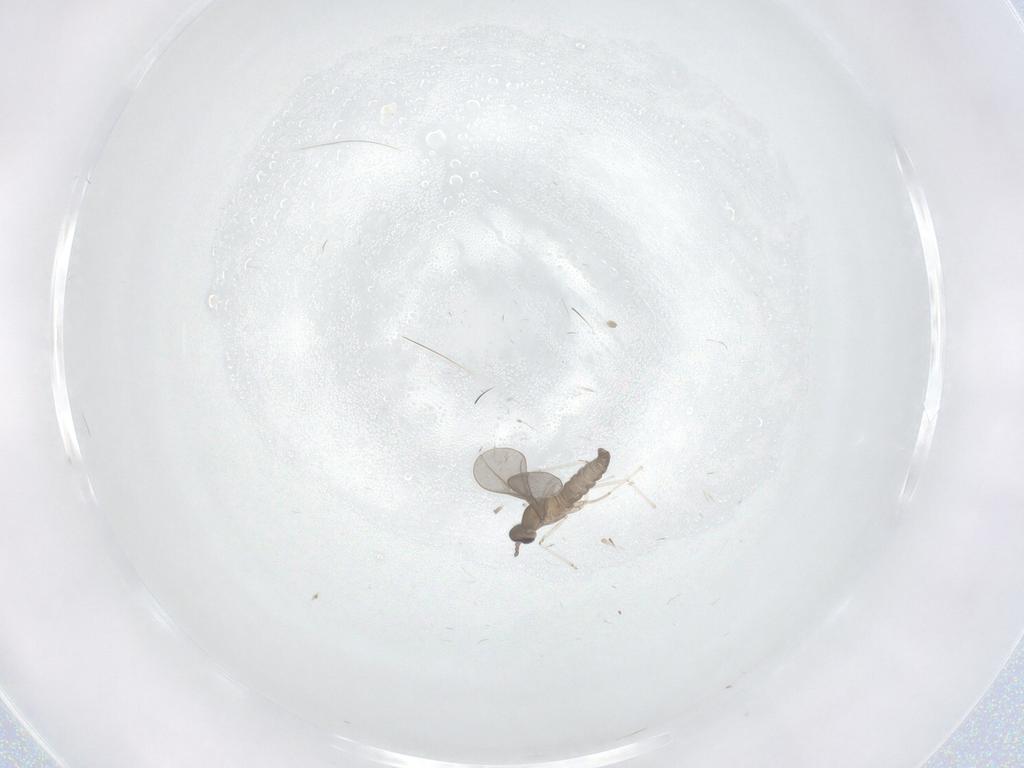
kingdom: Animalia
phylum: Arthropoda
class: Insecta
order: Diptera
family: Cecidomyiidae
